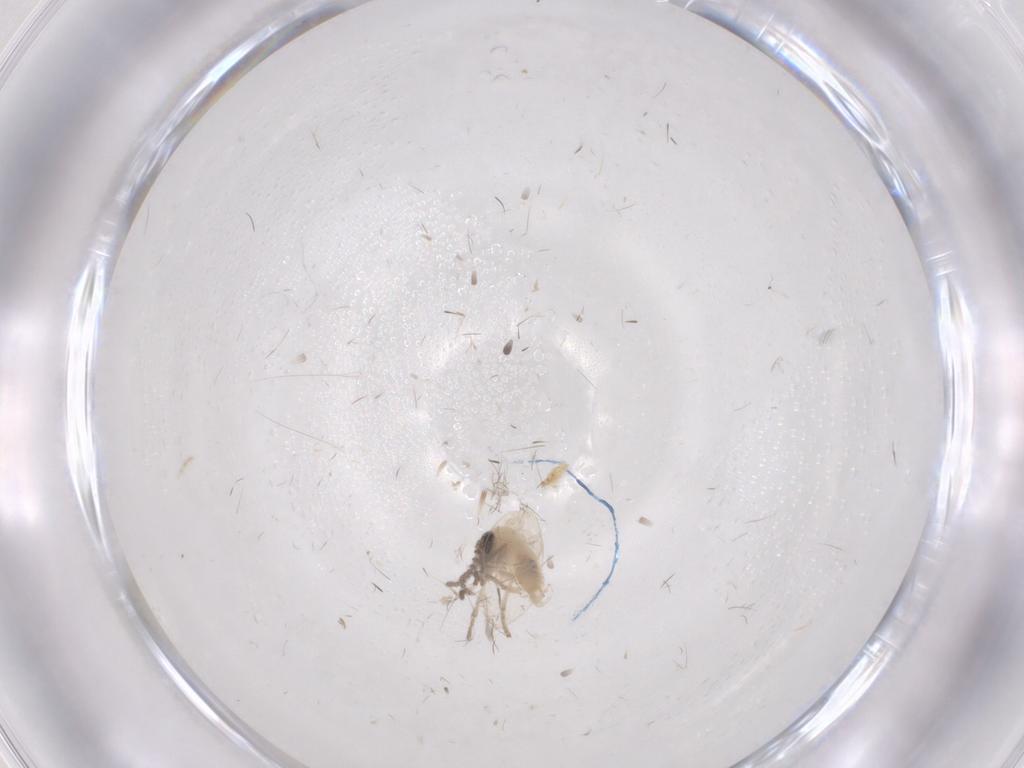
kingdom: Animalia
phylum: Arthropoda
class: Insecta
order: Diptera
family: Psychodidae
